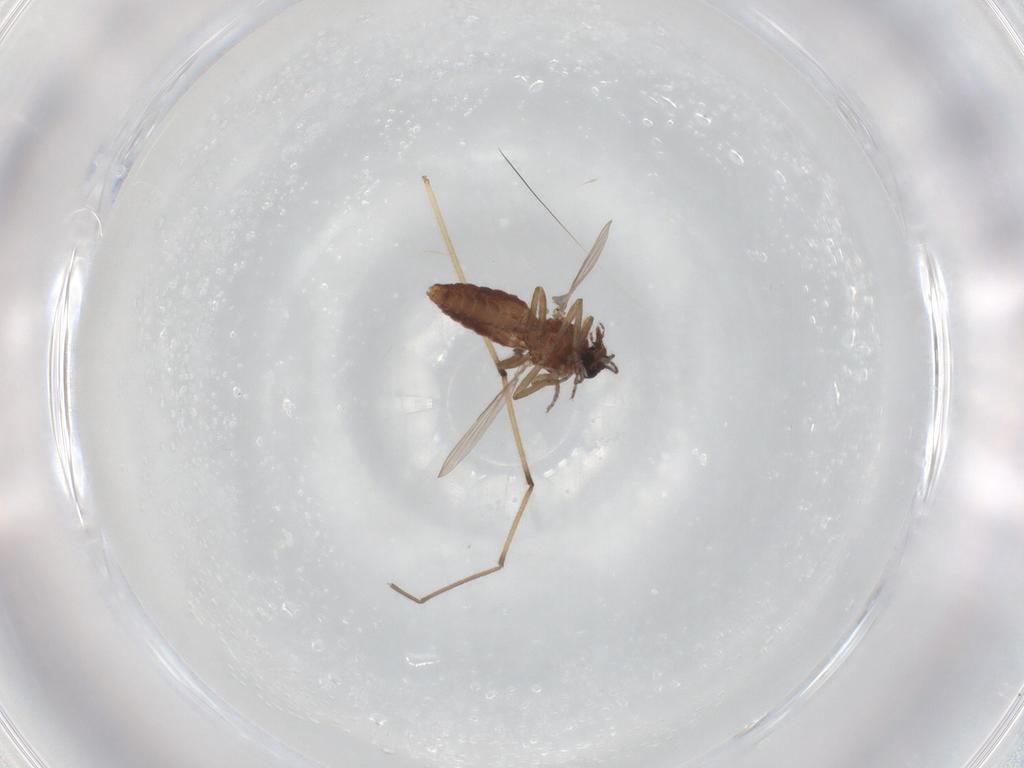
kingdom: Animalia
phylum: Arthropoda
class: Insecta
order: Diptera
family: Ceratopogonidae
